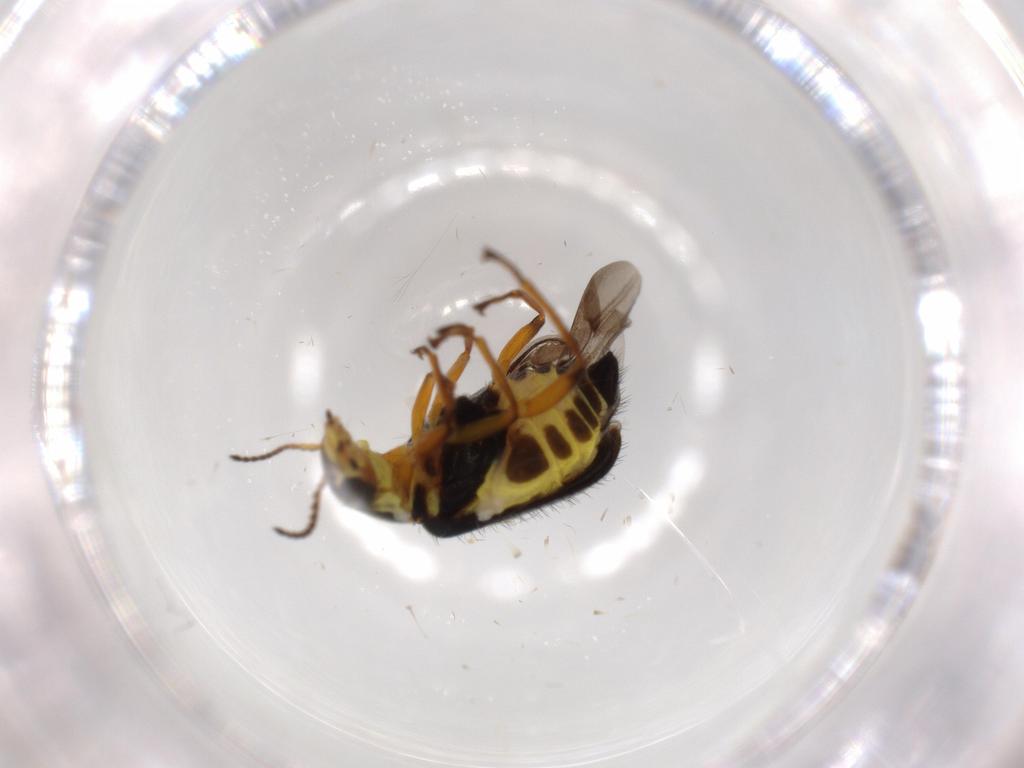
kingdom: Animalia
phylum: Arthropoda
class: Insecta
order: Coleoptera
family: Melyridae
